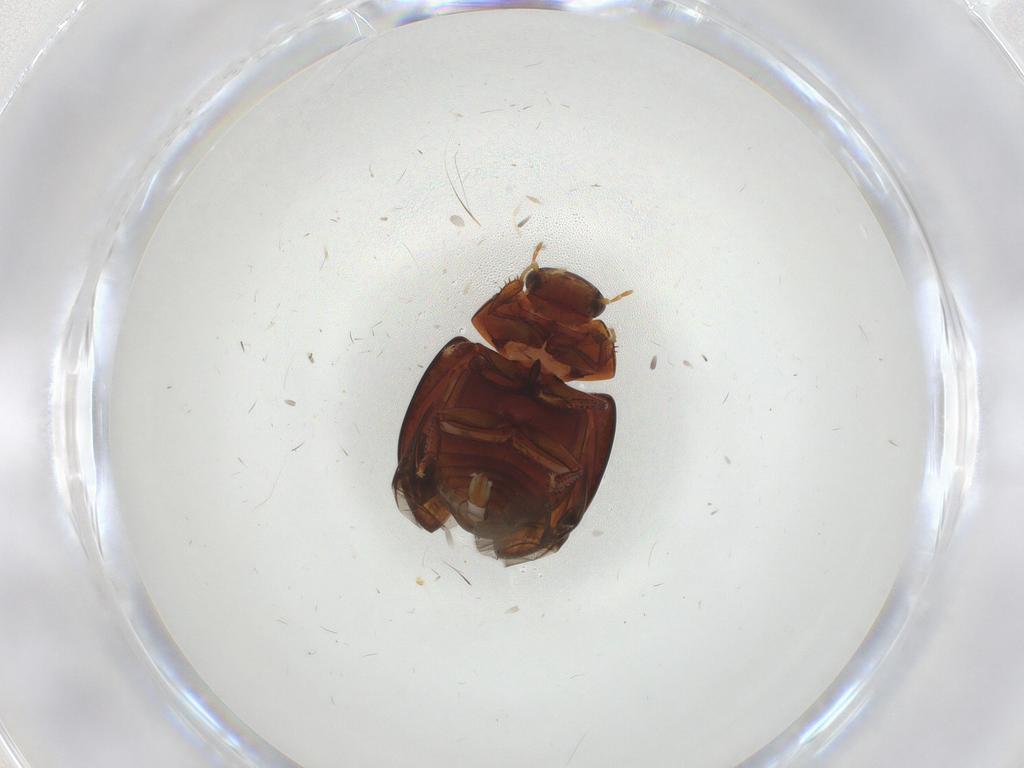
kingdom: Animalia
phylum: Arthropoda
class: Insecta
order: Coleoptera
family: Hydrophilidae
